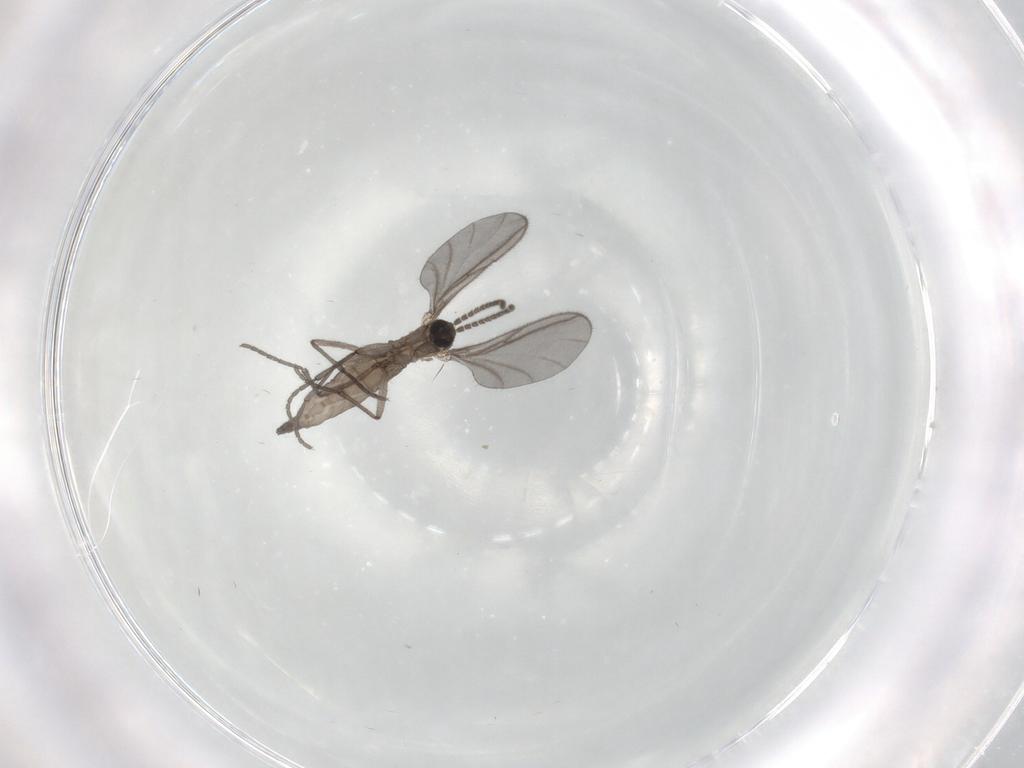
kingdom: Animalia
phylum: Arthropoda
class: Insecta
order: Diptera
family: Sciaridae
